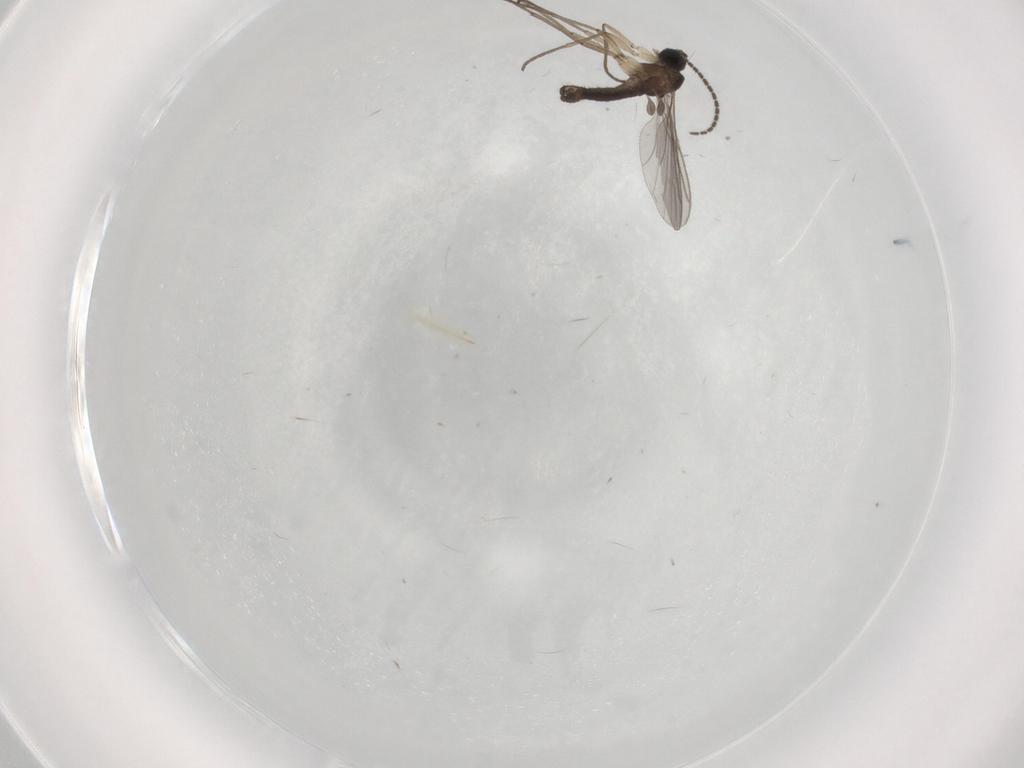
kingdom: Animalia
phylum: Arthropoda
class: Insecta
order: Diptera
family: Sciaridae
